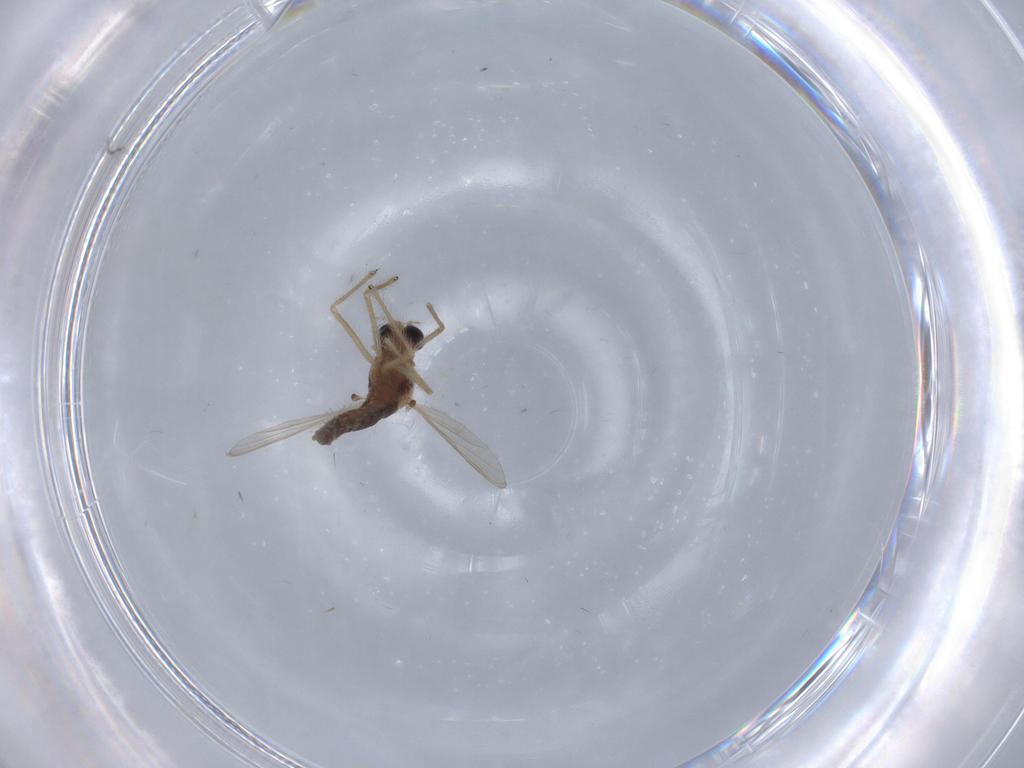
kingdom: Animalia
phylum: Arthropoda
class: Insecta
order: Diptera
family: Chironomidae
